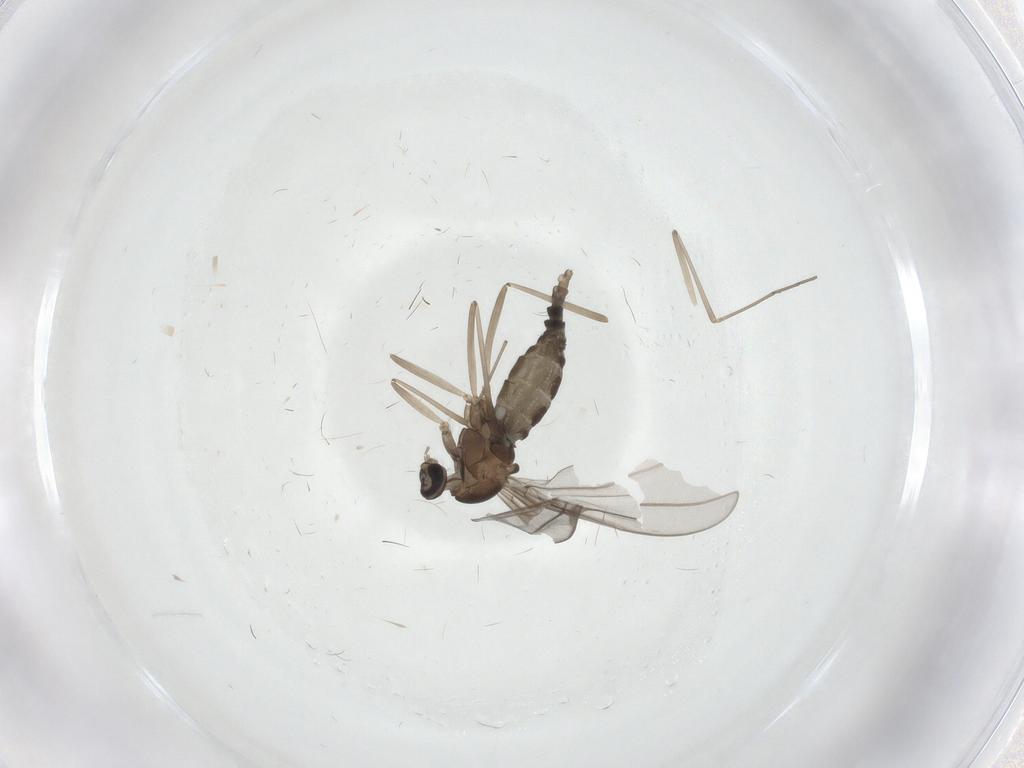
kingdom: Animalia
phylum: Arthropoda
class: Insecta
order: Diptera
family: Cecidomyiidae
